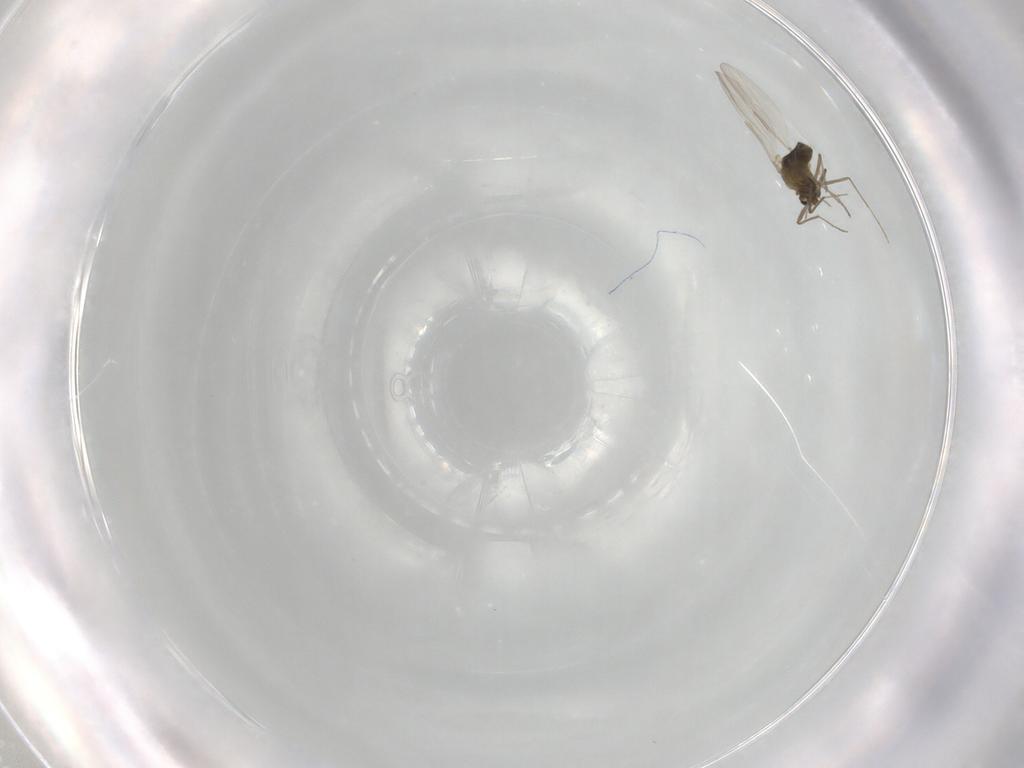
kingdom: Animalia
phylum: Arthropoda
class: Insecta
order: Diptera
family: Chironomidae
